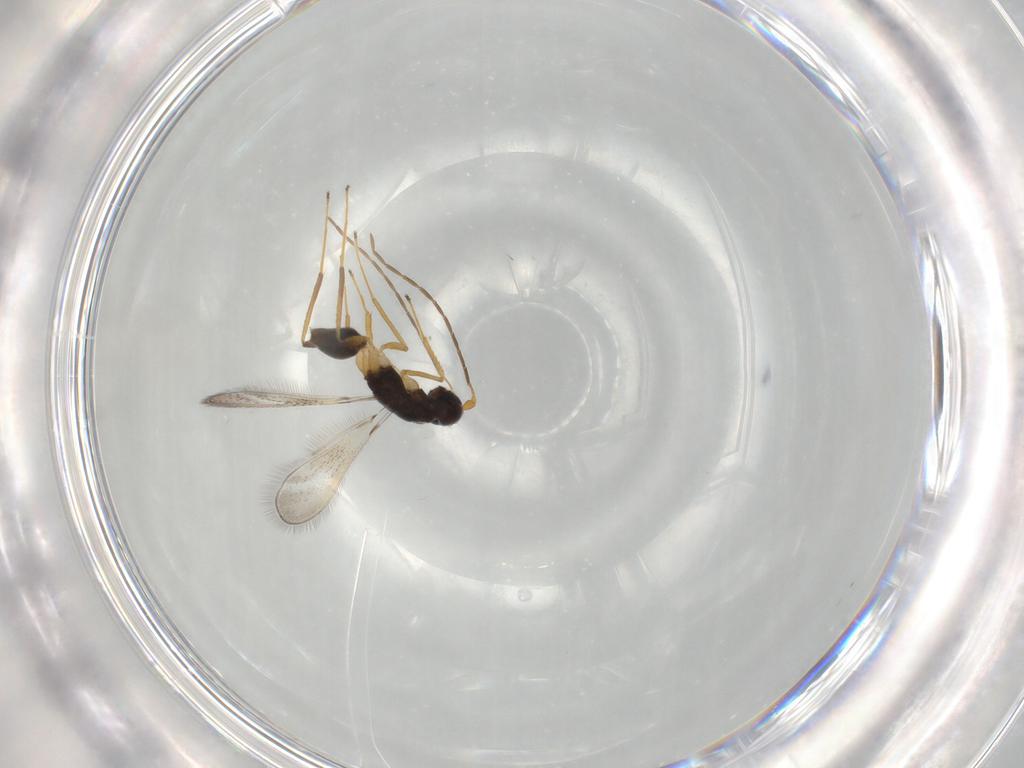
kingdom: Animalia
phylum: Arthropoda
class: Insecta
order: Hymenoptera
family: Mymaridae
